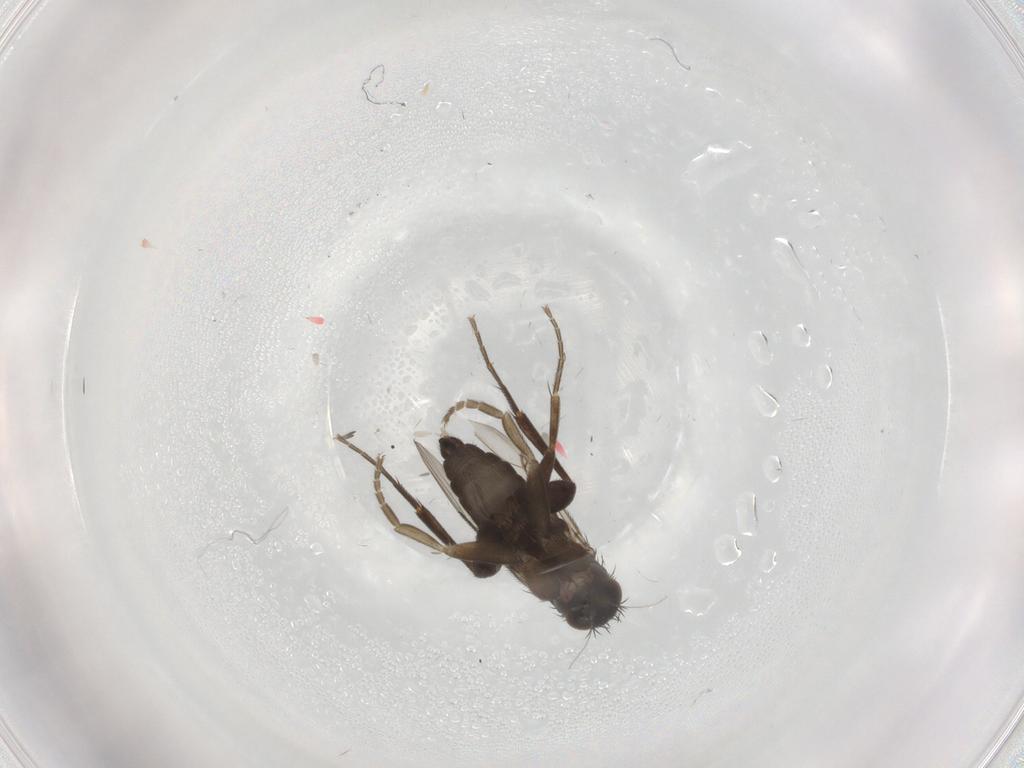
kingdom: Animalia
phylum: Arthropoda
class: Insecta
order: Diptera
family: Phoridae
